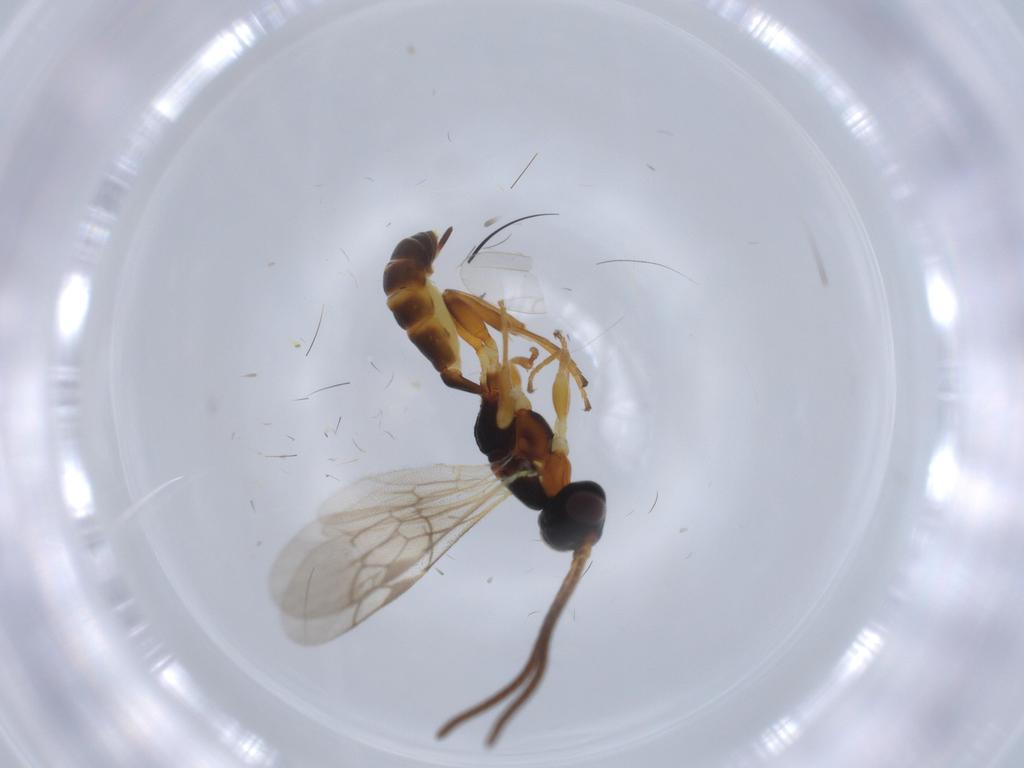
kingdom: Animalia
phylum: Arthropoda
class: Insecta
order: Hymenoptera
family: Ichneumonidae
